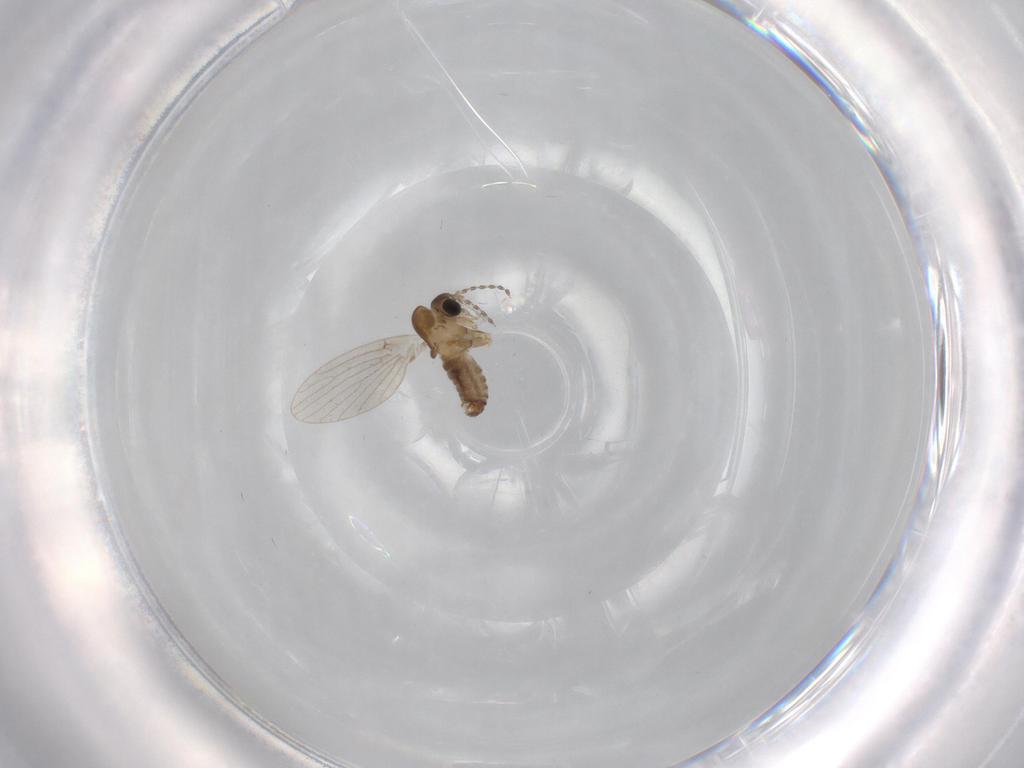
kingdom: Animalia
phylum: Arthropoda
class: Insecta
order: Diptera
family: Psychodidae
